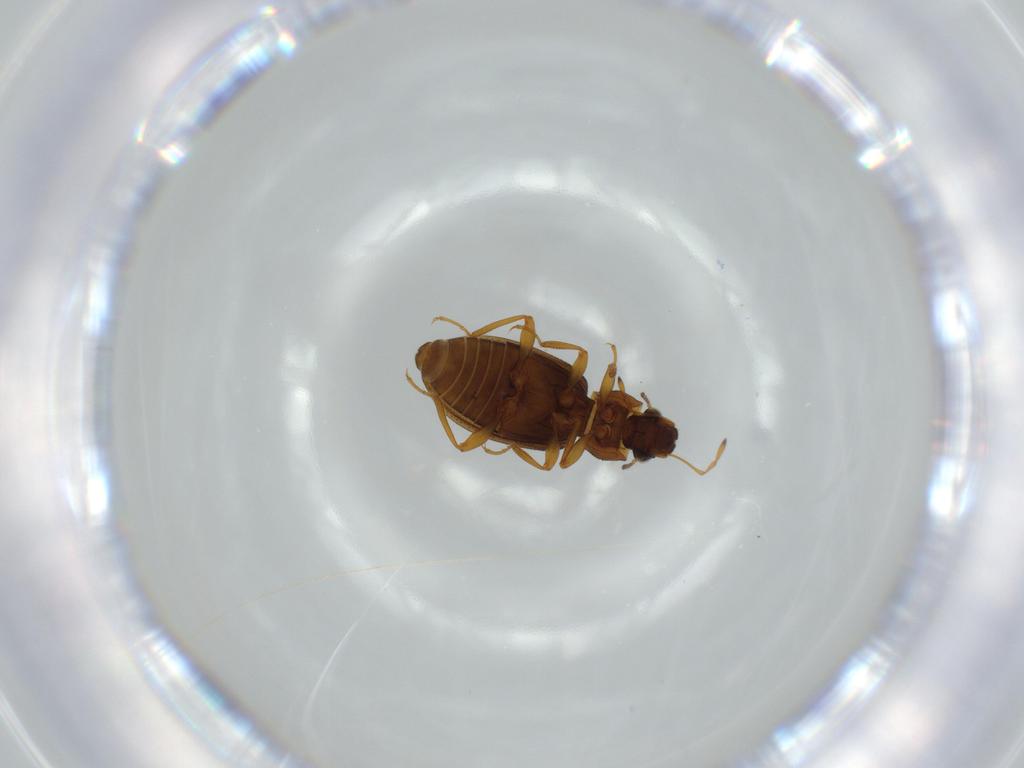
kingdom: Animalia
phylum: Arthropoda
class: Insecta
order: Coleoptera
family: Hydraenidae
